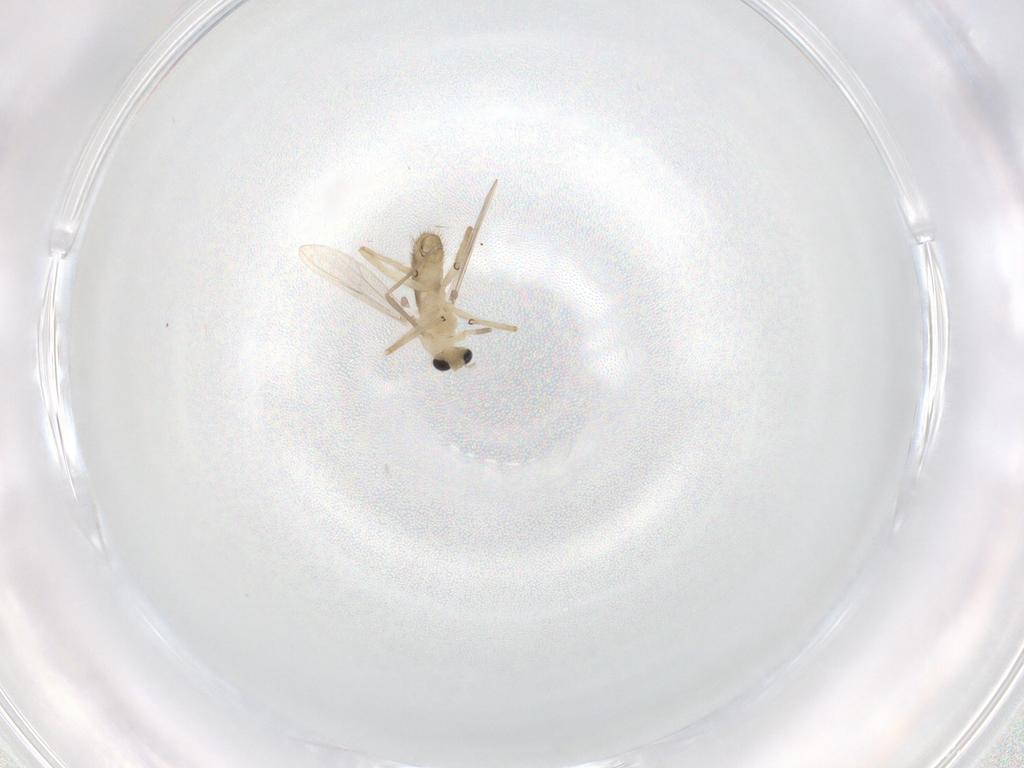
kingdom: Animalia
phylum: Arthropoda
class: Insecta
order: Diptera
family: Chironomidae
